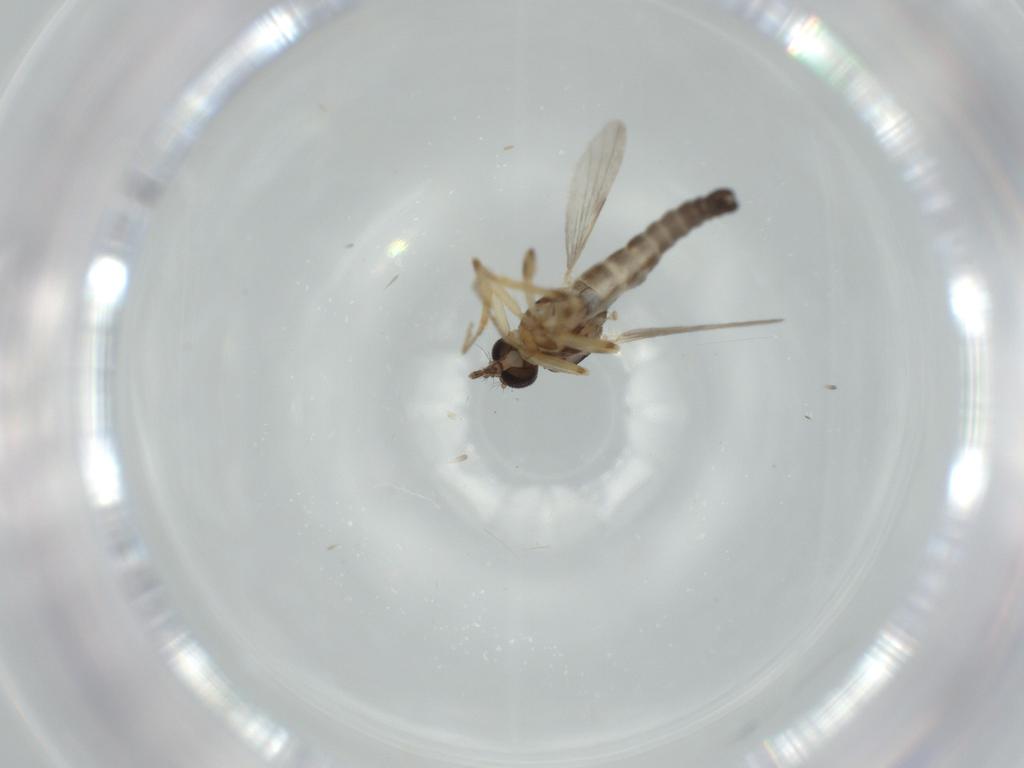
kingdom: Animalia
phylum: Arthropoda
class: Insecta
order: Diptera
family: Ceratopogonidae
